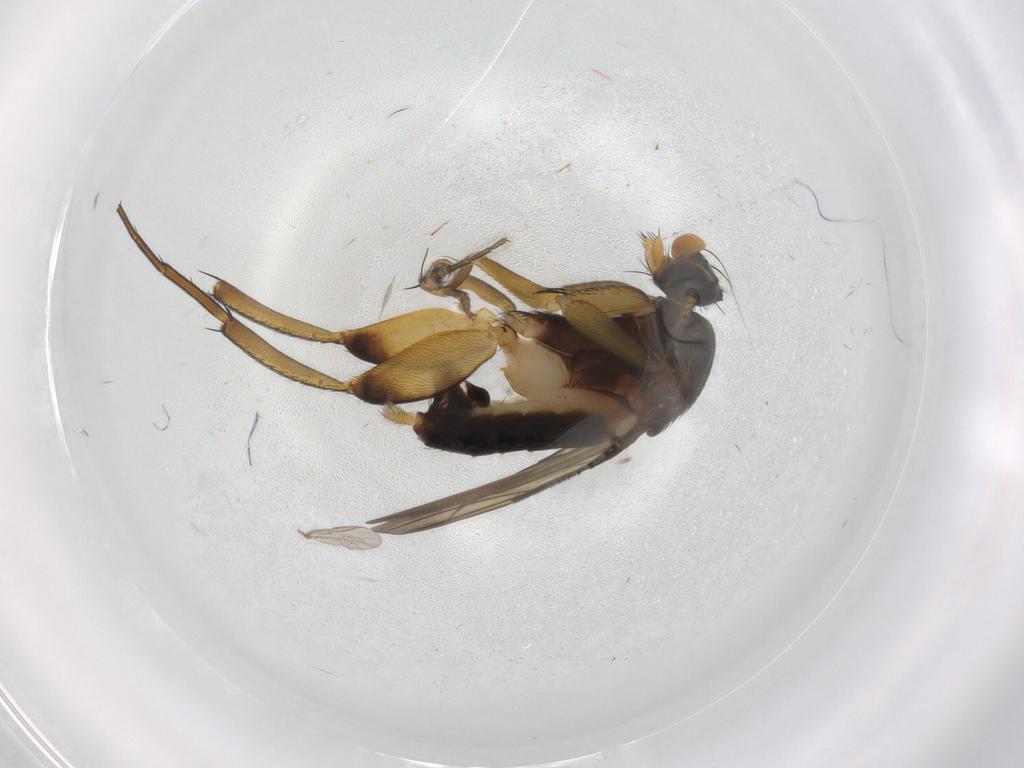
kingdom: Animalia
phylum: Arthropoda
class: Insecta
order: Diptera
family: Phoridae
